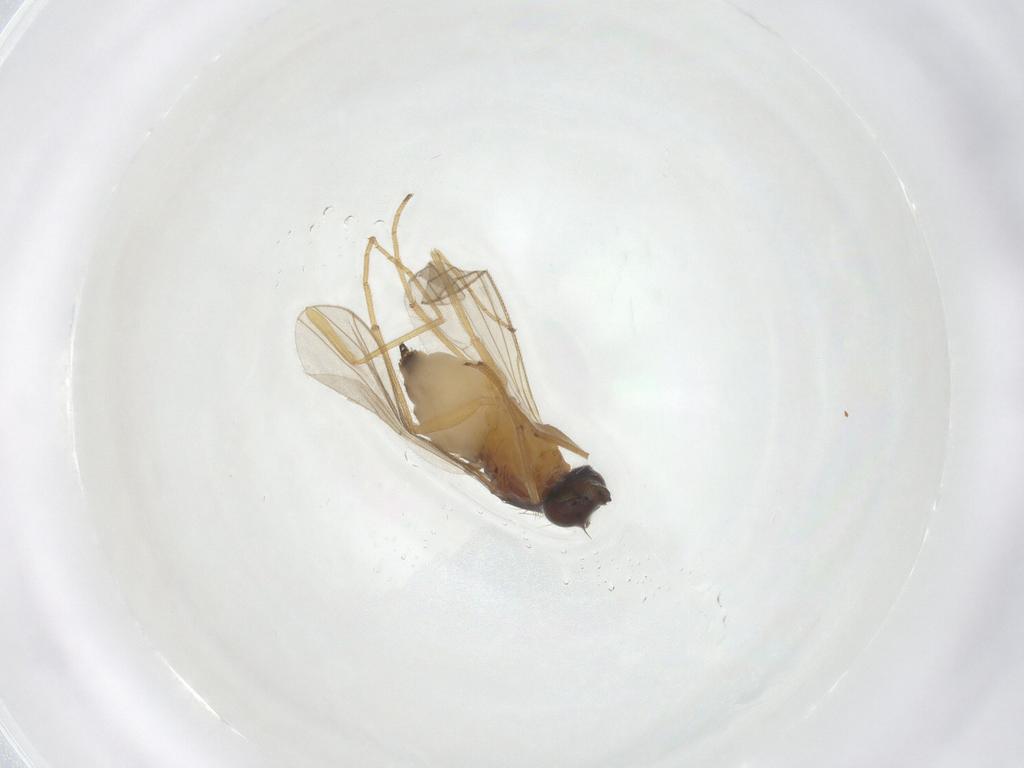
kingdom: Animalia
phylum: Arthropoda
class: Insecta
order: Diptera
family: Dolichopodidae
